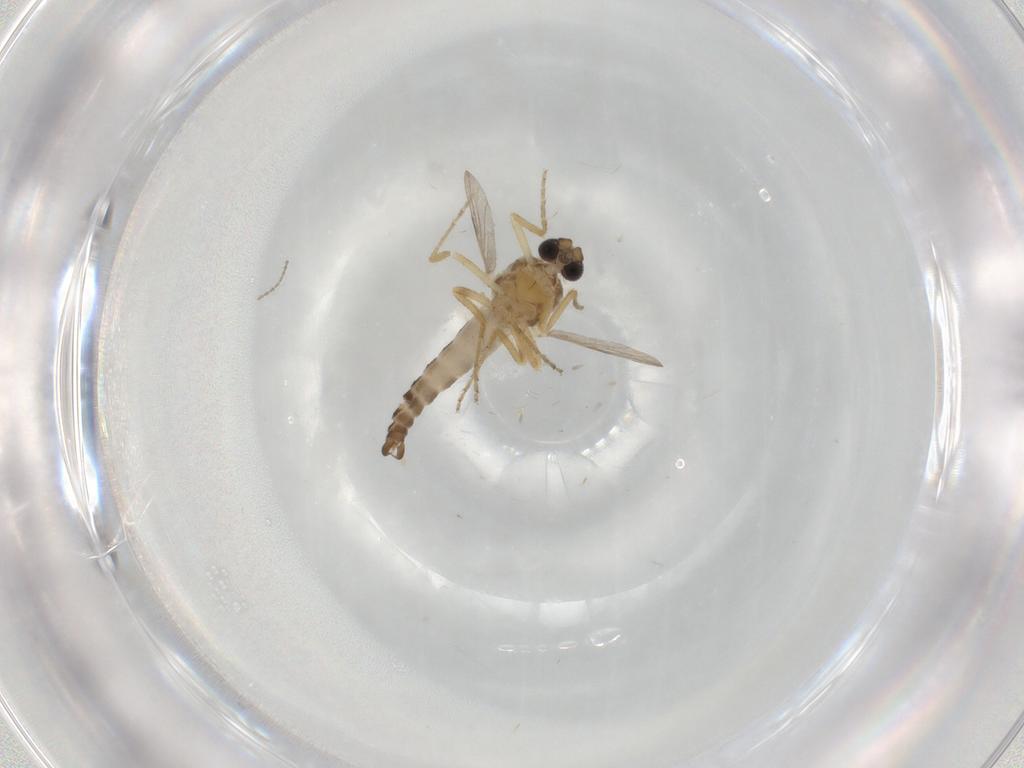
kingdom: Animalia
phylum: Arthropoda
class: Insecta
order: Diptera
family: Ceratopogonidae
